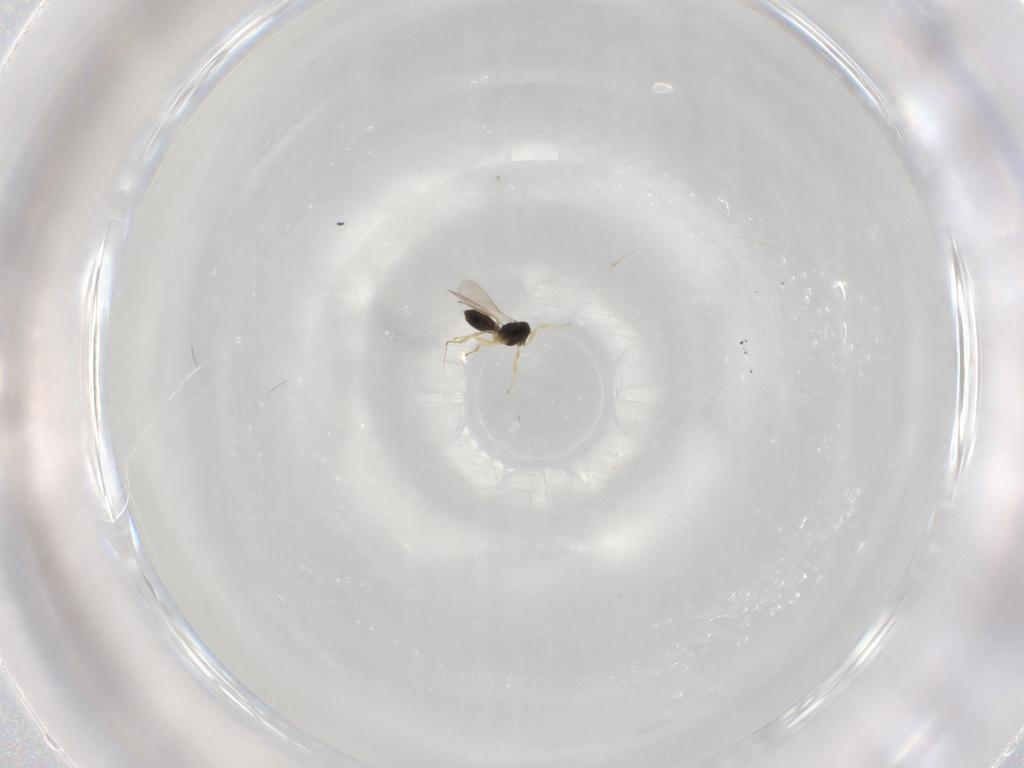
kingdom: Animalia
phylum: Arthropoda
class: Insecta
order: Hymenoptera
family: Scelionidae
